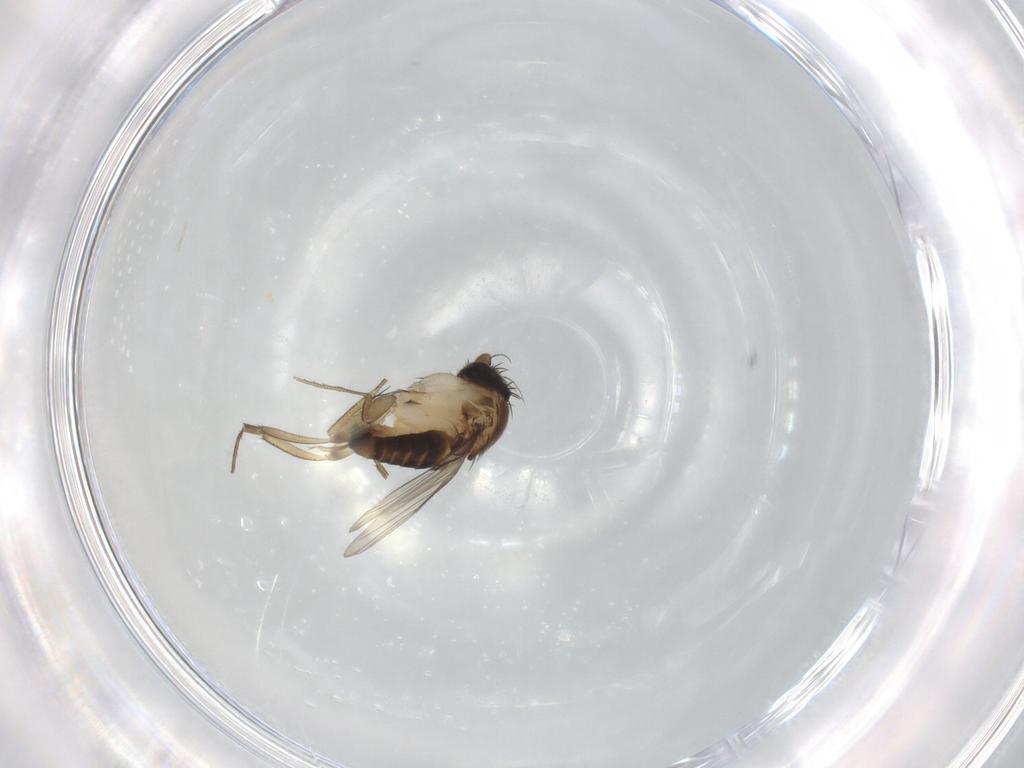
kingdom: Animalia
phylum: Arthropoda
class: Insecta
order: Diptera
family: Phoridae
